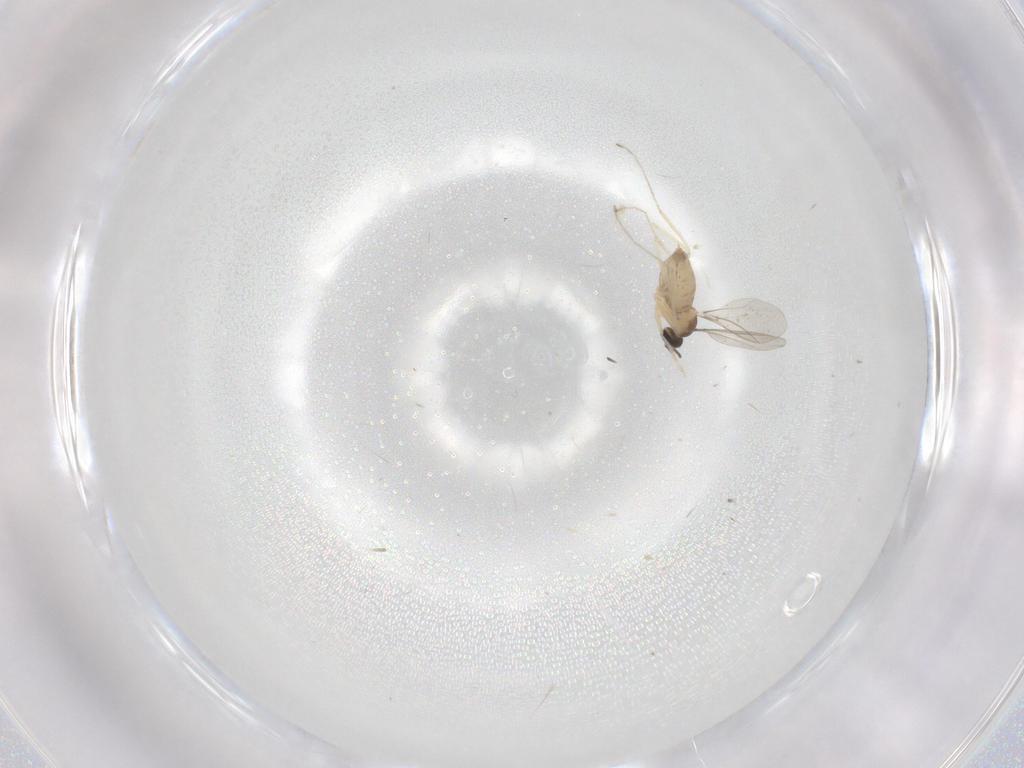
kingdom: Animalia
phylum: Arthropoda
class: Insecta
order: Diptera
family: Cecidomyiidae
